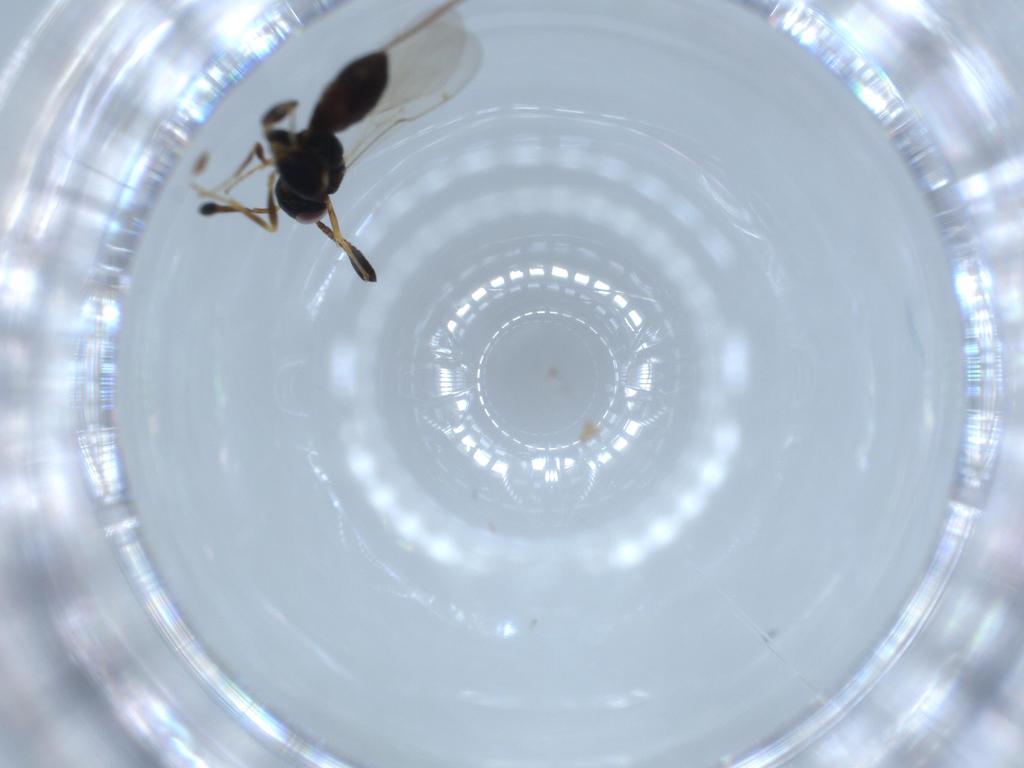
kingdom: Animalia
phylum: Arthropoda
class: Insecta
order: Hymenoptera
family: Torymidae
